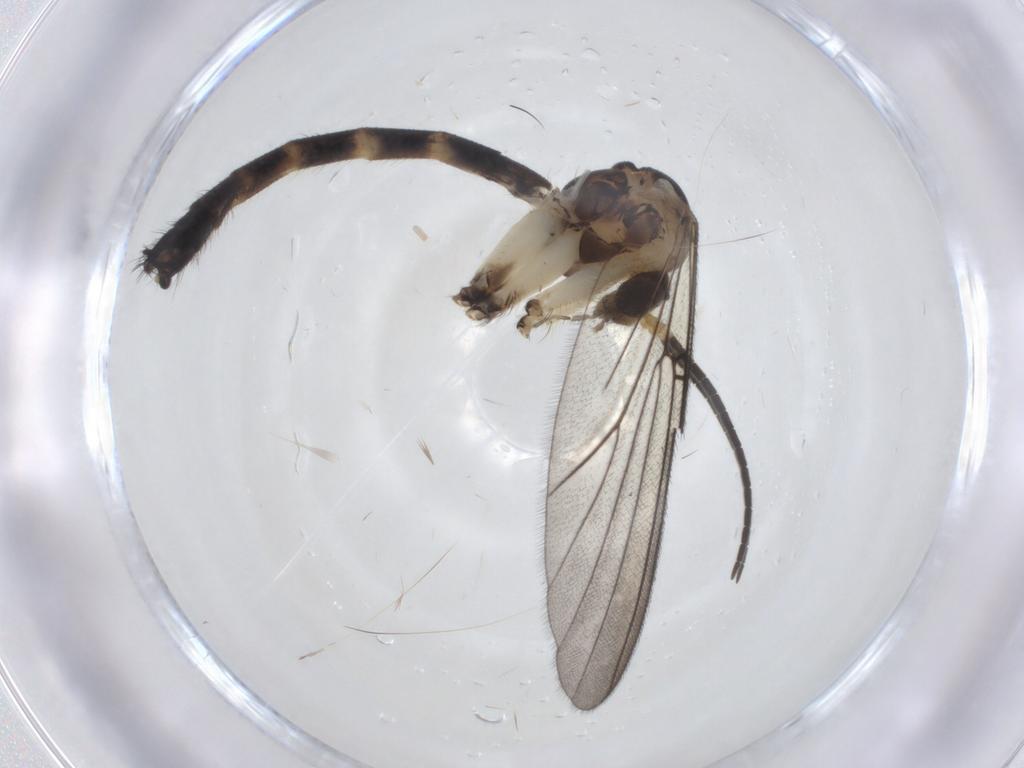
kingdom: Animalia
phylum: Arthropoda
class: Insecta
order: Diptera
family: Mycetophilidae
